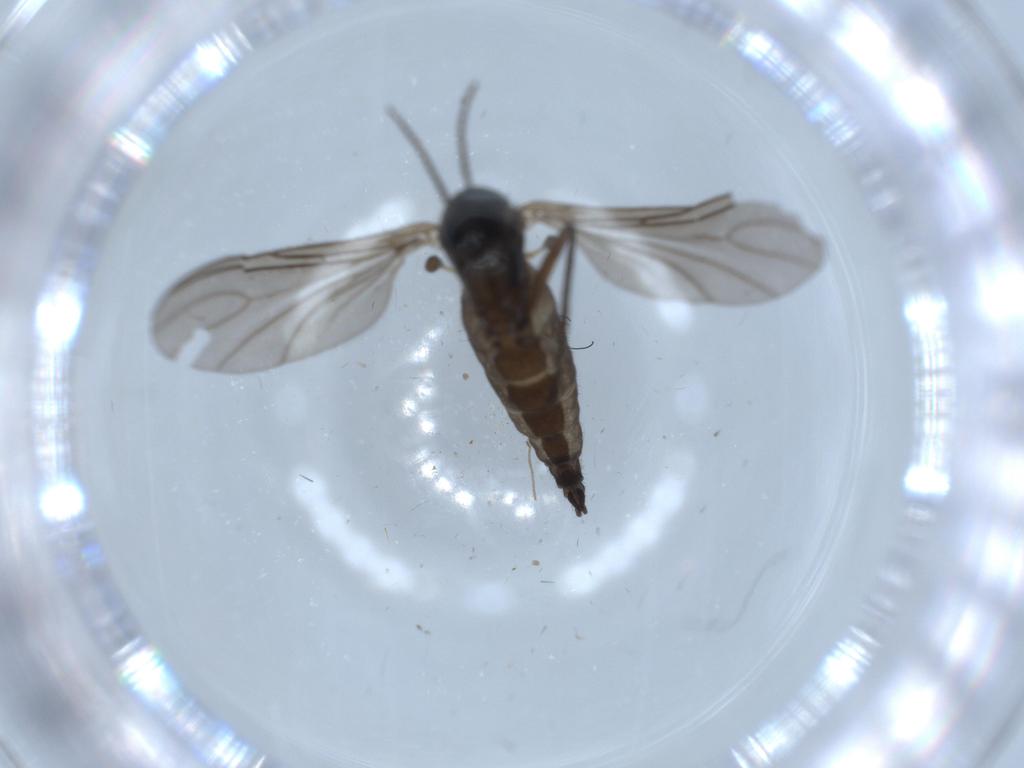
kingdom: Animalia
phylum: Arthropoda
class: Insecta
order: Diptera
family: Sciaridae
